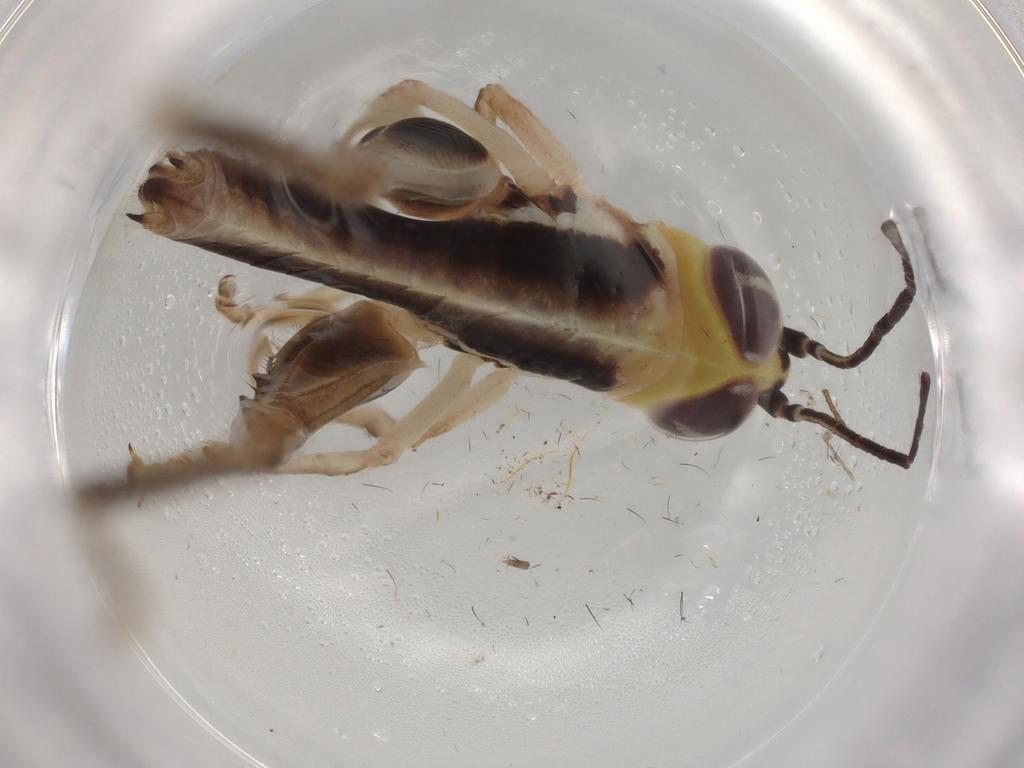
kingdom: Animalia
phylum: Arthropoda
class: Insecta
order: Orthoptera
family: Acrididae
